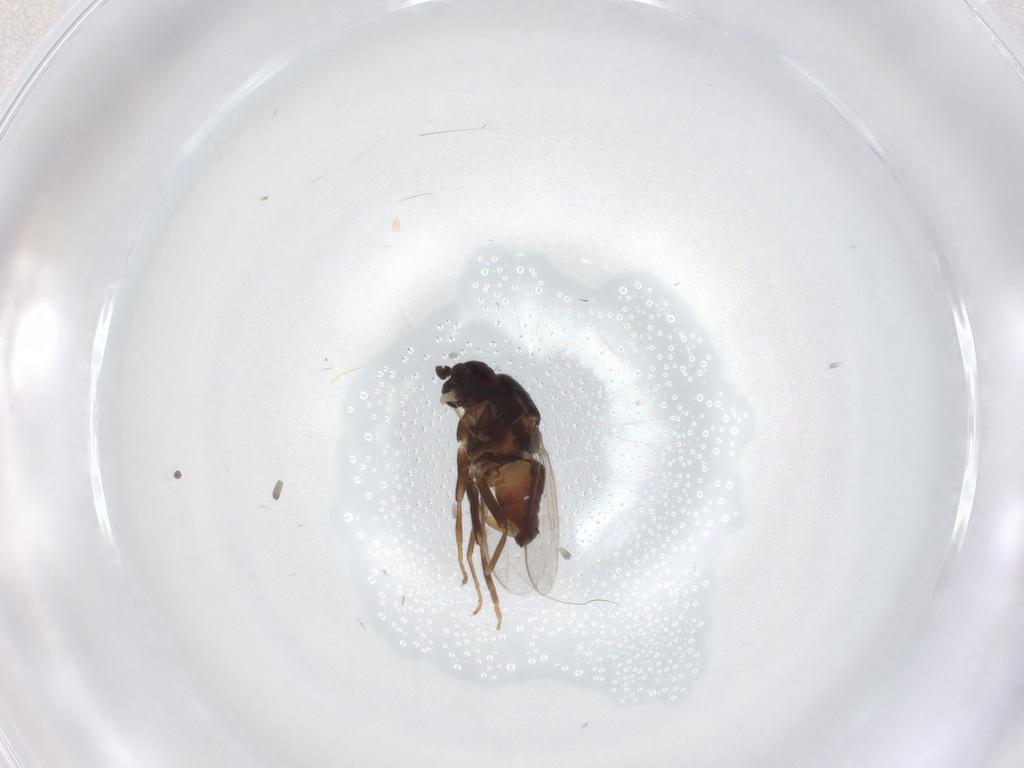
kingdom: Animalia
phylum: Arthropoda
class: Insecta
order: Diptera
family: Sphaeroceridae
